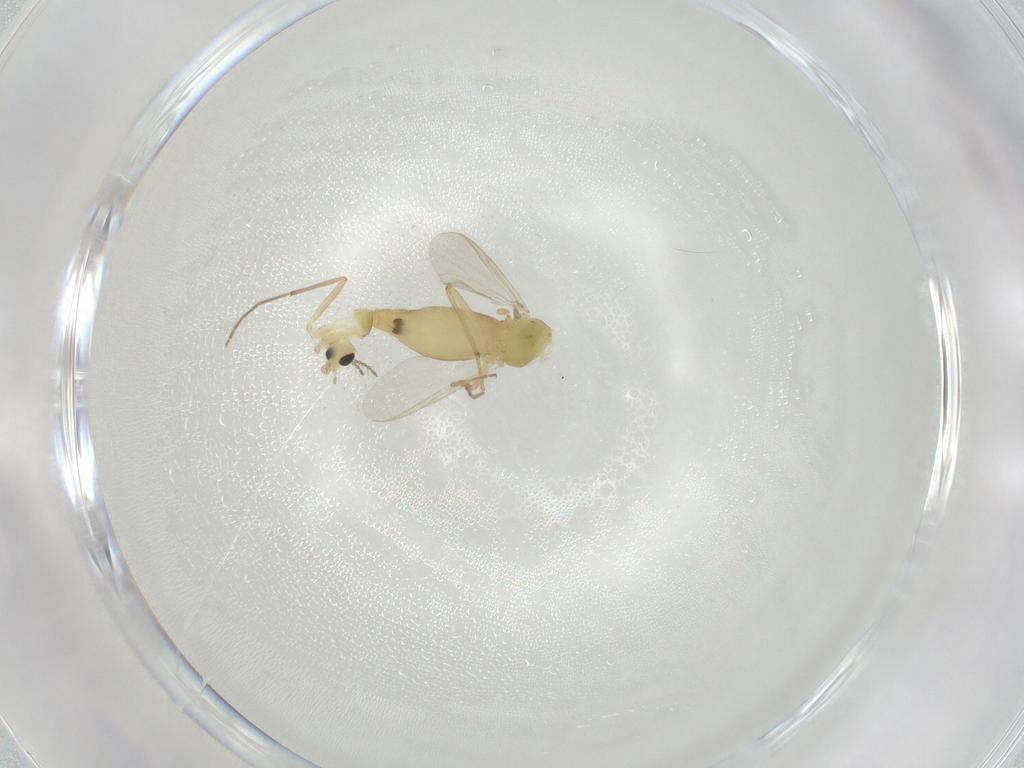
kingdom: Animalia
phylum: Arthropoda
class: Insecta
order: Diptera
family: Chironomidae
